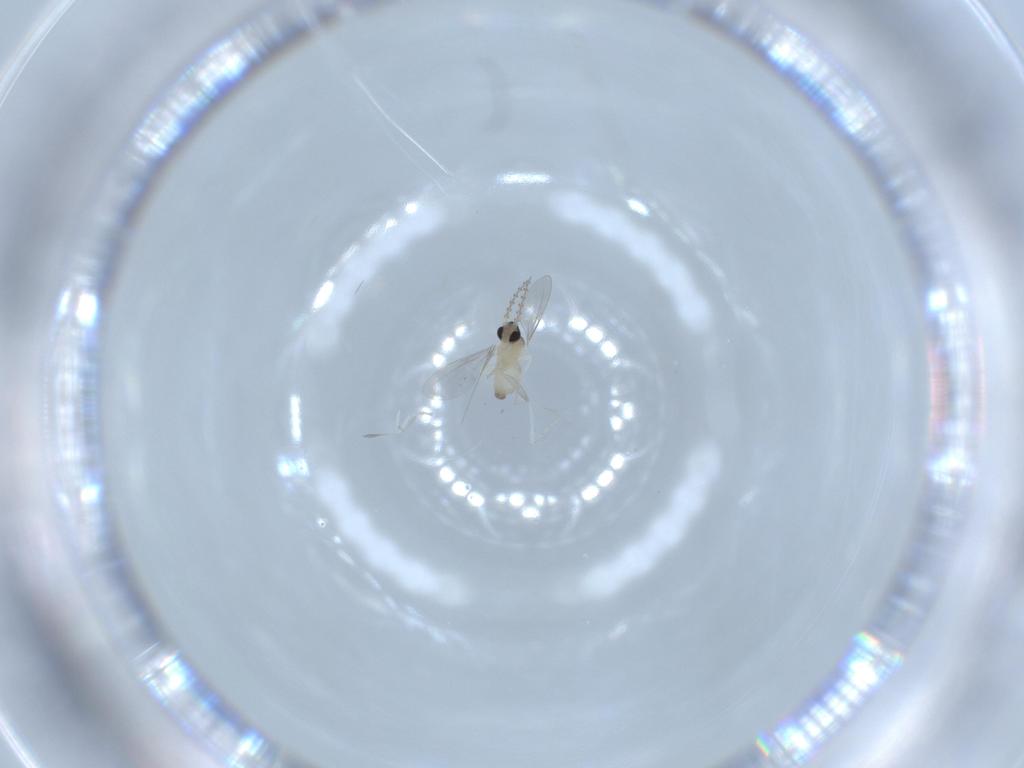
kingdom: Animalia
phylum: Arthropoda
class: Insecta
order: Diptera
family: Cecidomyiidae
